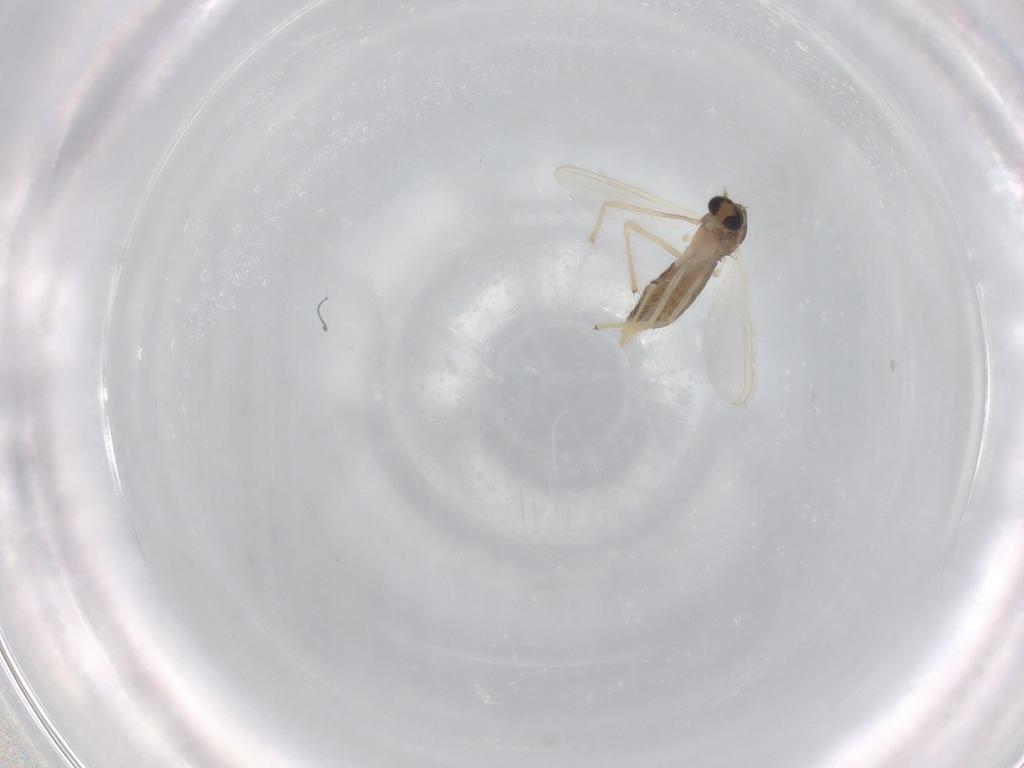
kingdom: Animalia
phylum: Arthropoda
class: Insecta
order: Diptera
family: Chironomidae
